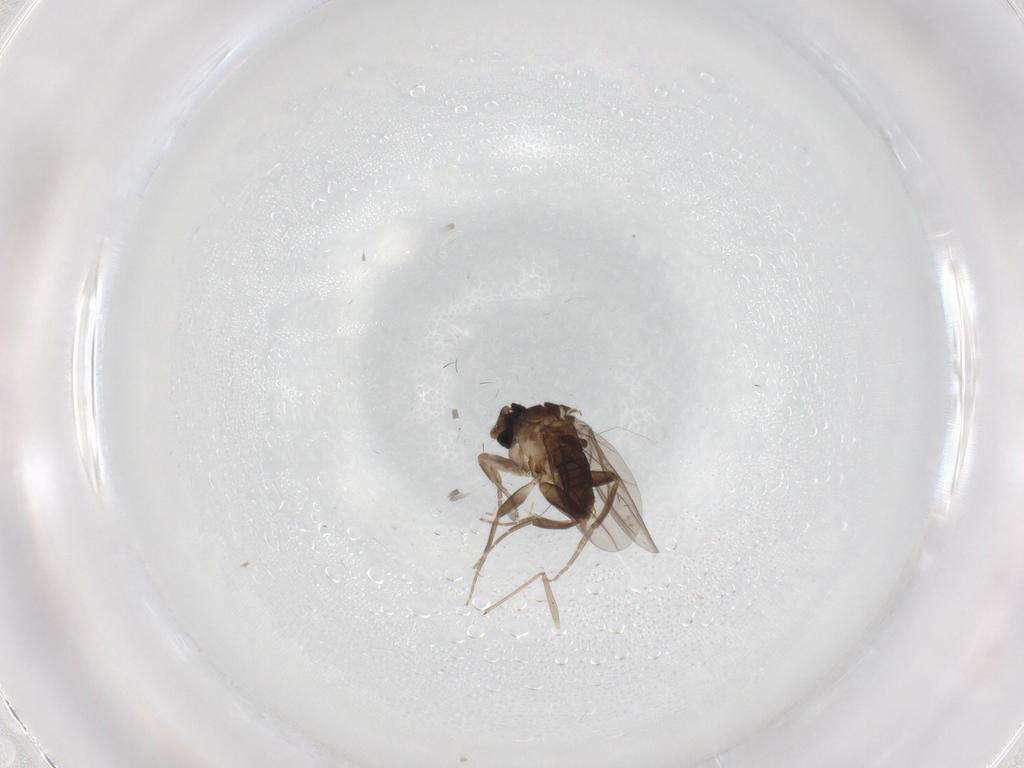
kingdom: Animalia
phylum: Arthropoda
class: Insecta
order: Diptera
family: Phoridae
